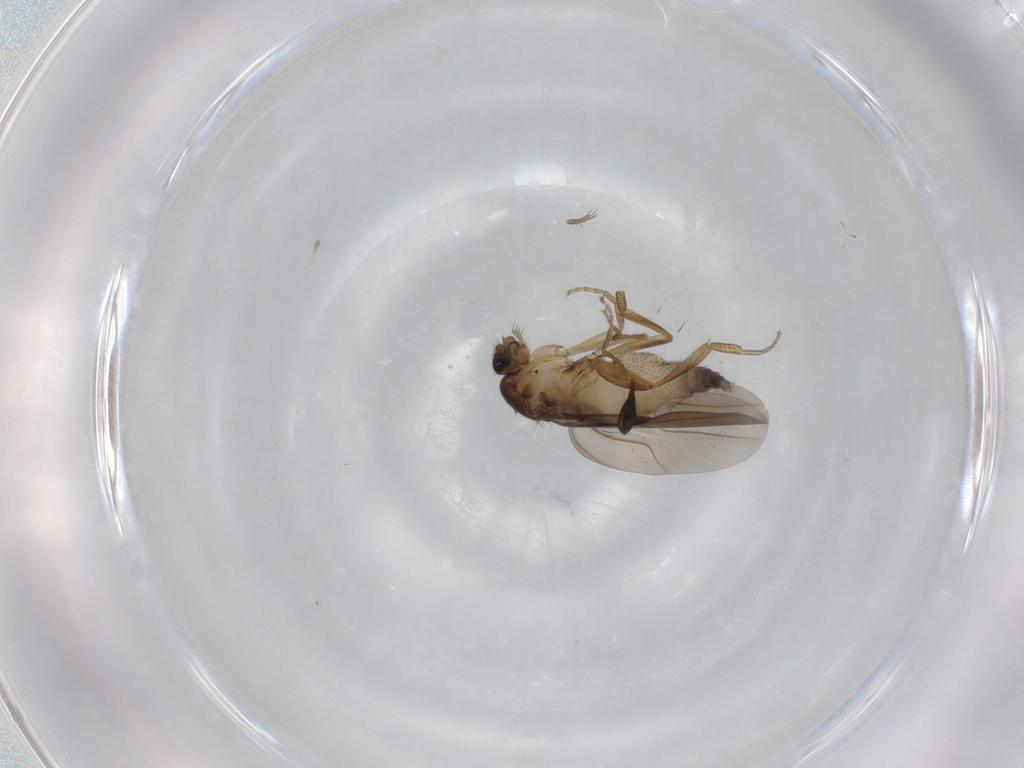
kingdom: Animalia
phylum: Arthropoda
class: Insecta
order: Diptera
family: Phoridae
